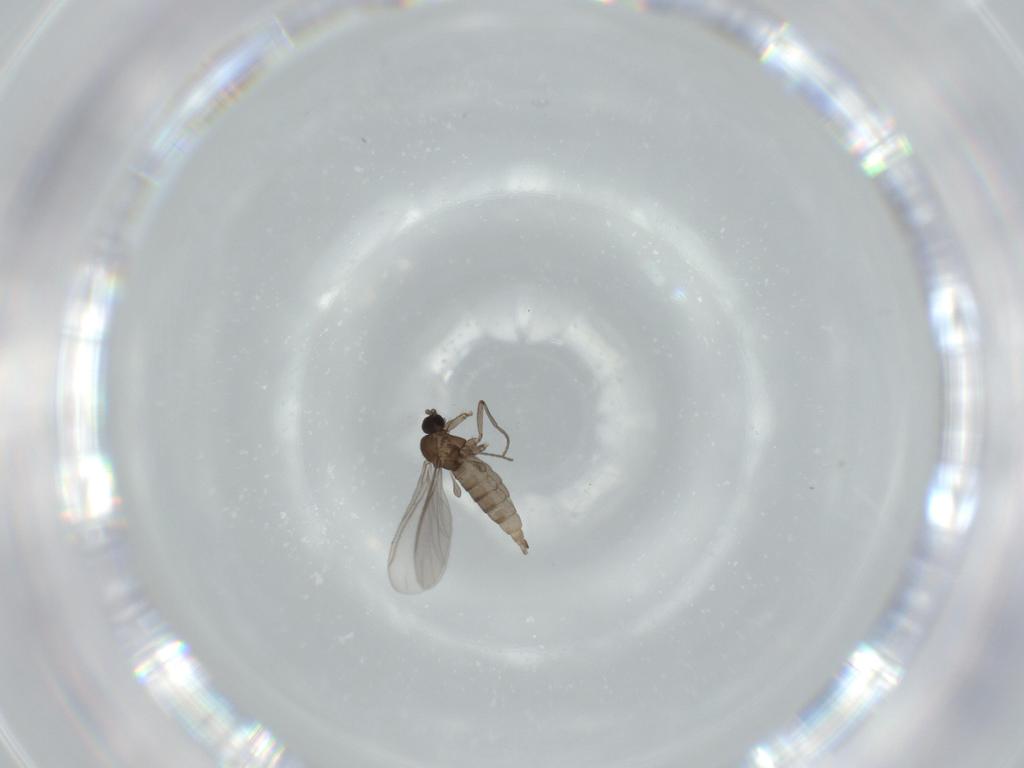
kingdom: Animalia
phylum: Arthropoda
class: Insecta
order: Diptera
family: Sciaridae
